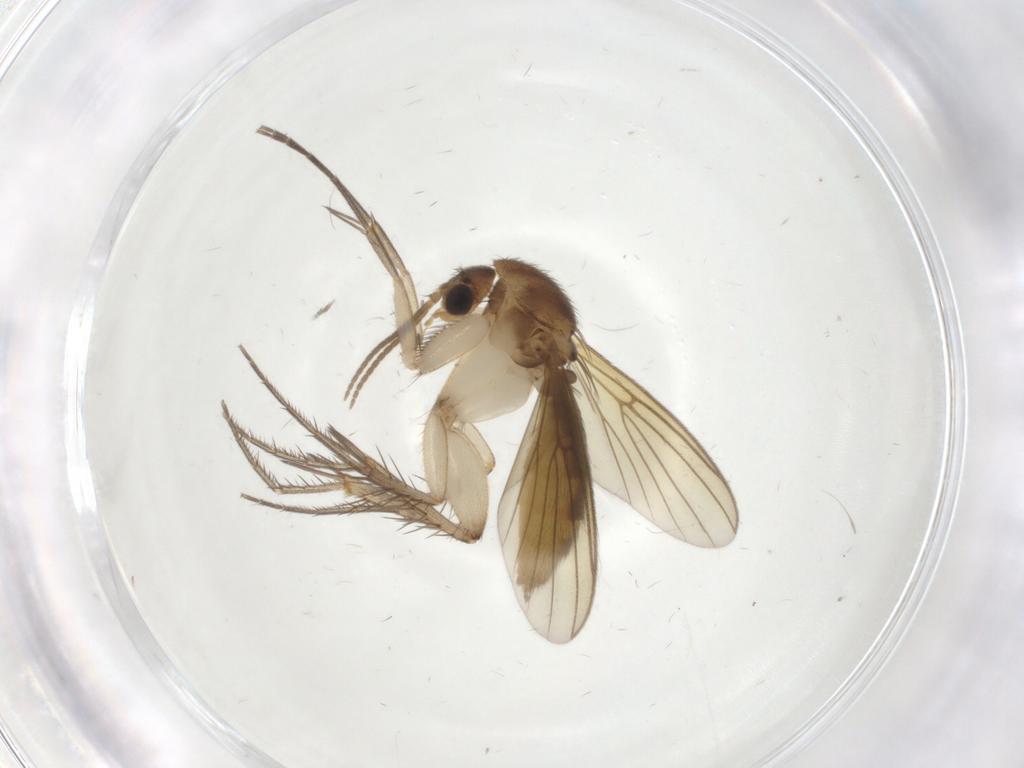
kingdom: Animalia
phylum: Arthropoda
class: Insecta
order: Diptera
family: Mycetophilidae
